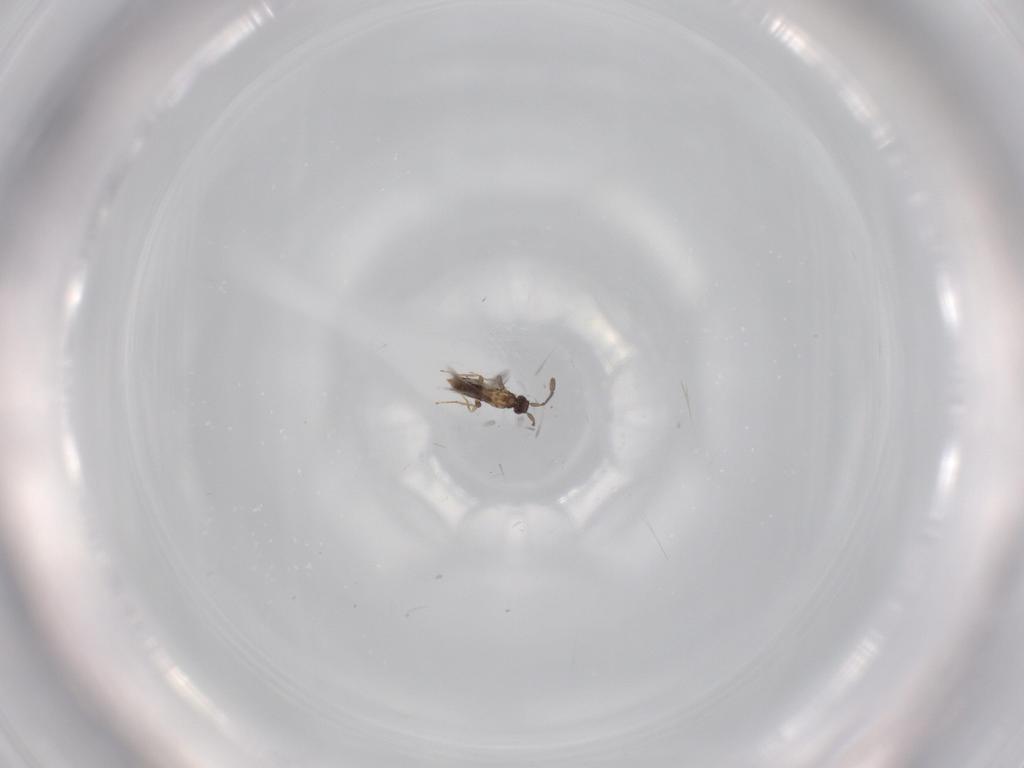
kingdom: Animalia
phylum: Arthropoda
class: Insecta
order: Hymenoptera
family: Mymaridae
